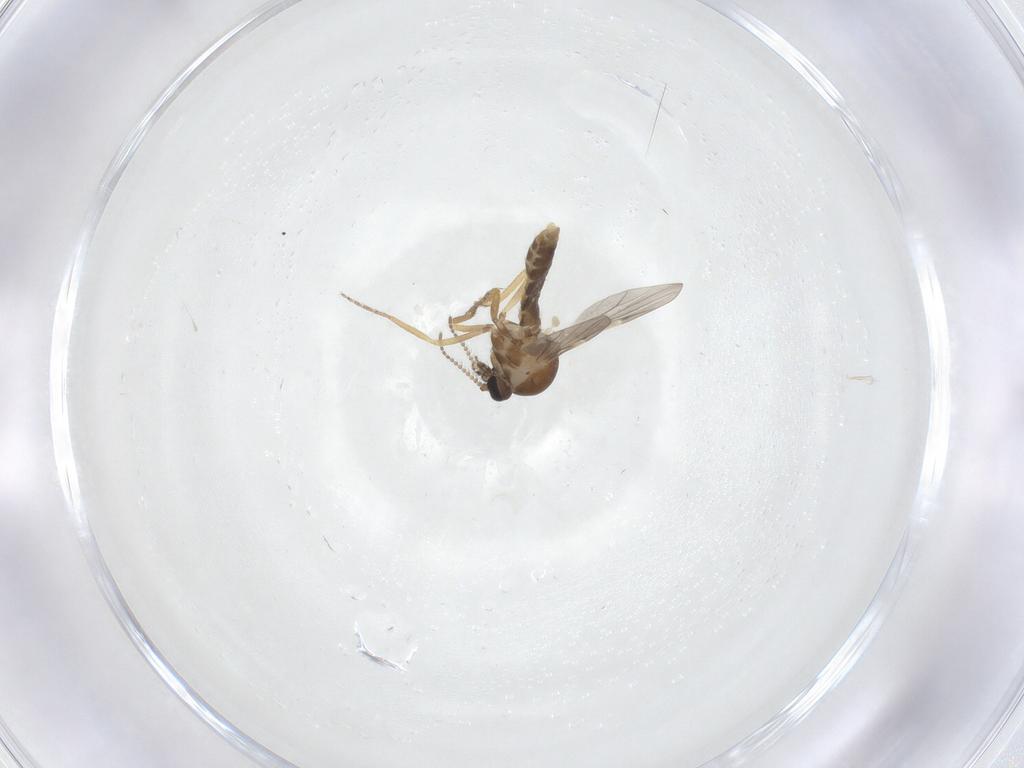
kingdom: Animalia
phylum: Arthropoda
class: Insecta
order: Diptera
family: Ceratopogonidae
